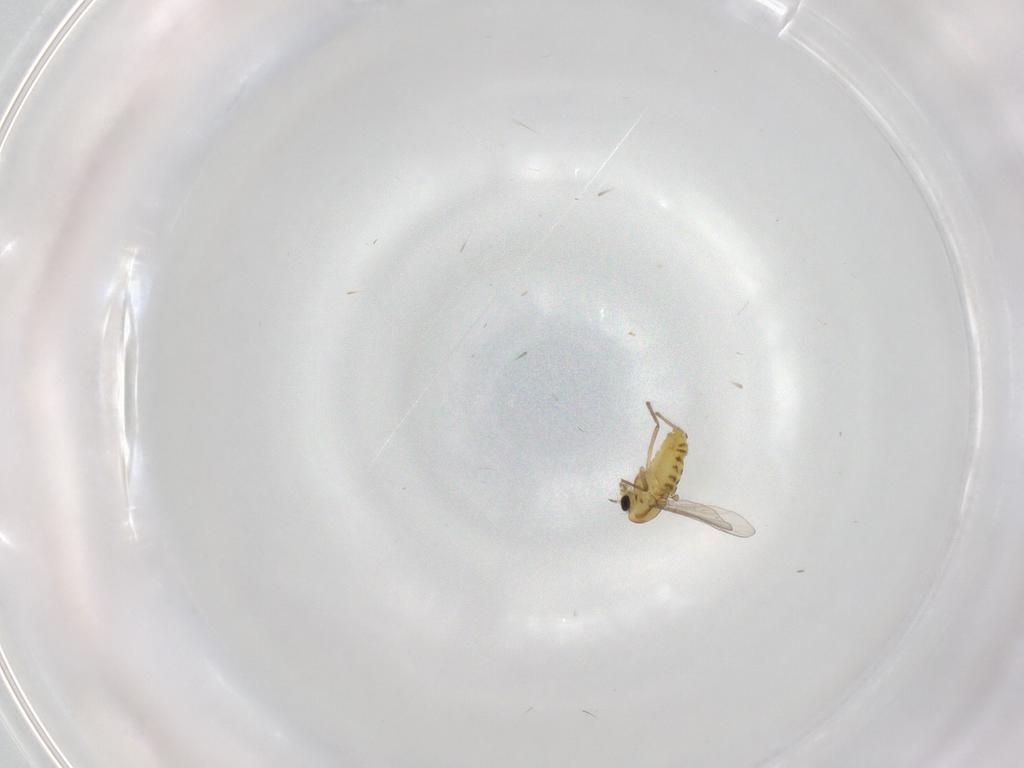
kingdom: Animalia
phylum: Arthropoda
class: Insecta
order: Diptera
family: Chironomidae
